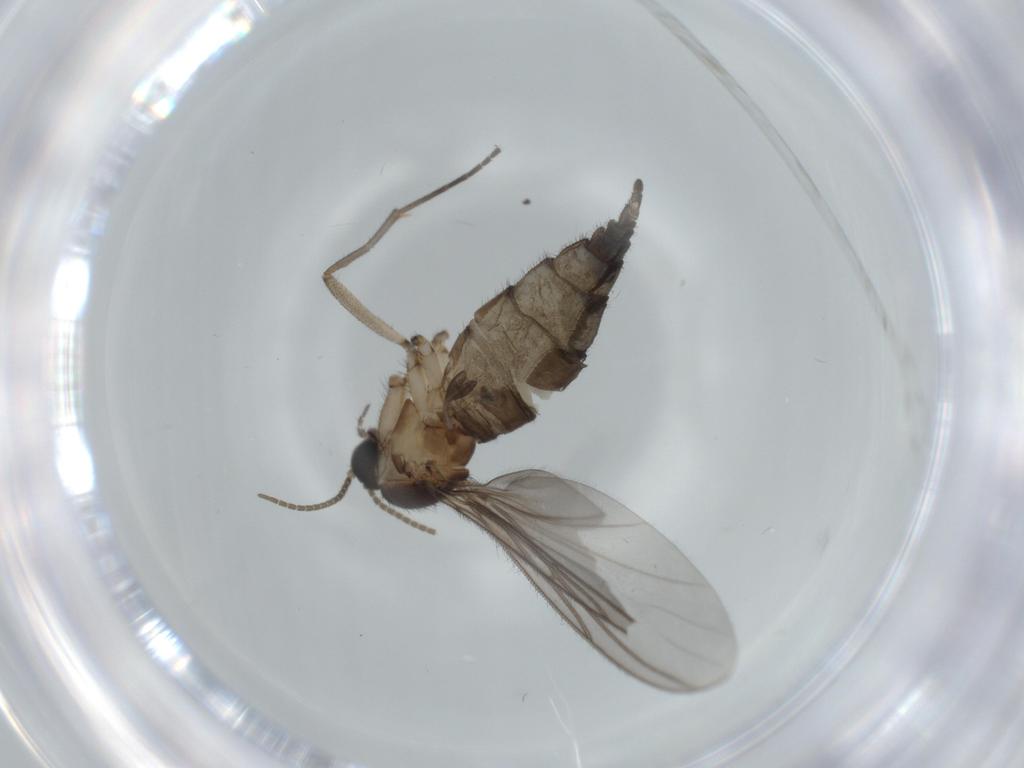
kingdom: Animalia
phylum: Arthropoda
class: Insecta
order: Diptera
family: Sciaridae
